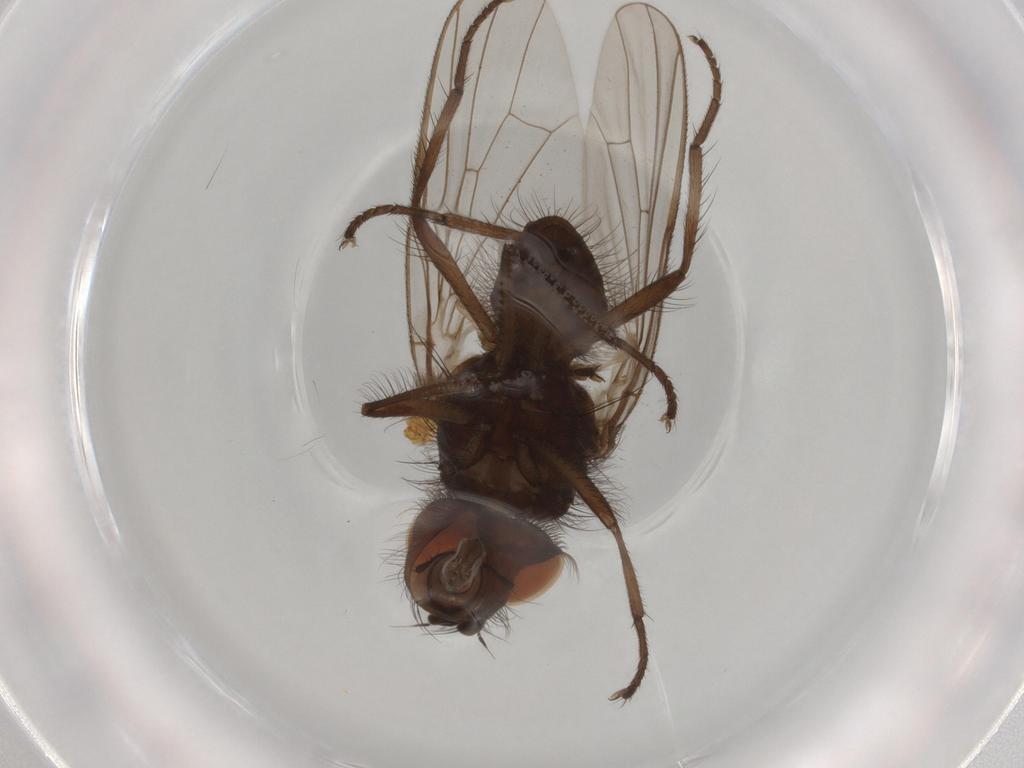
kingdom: Animalia
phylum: Arthropoda
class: Insecta
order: Diptera
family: Anthomyiidae
